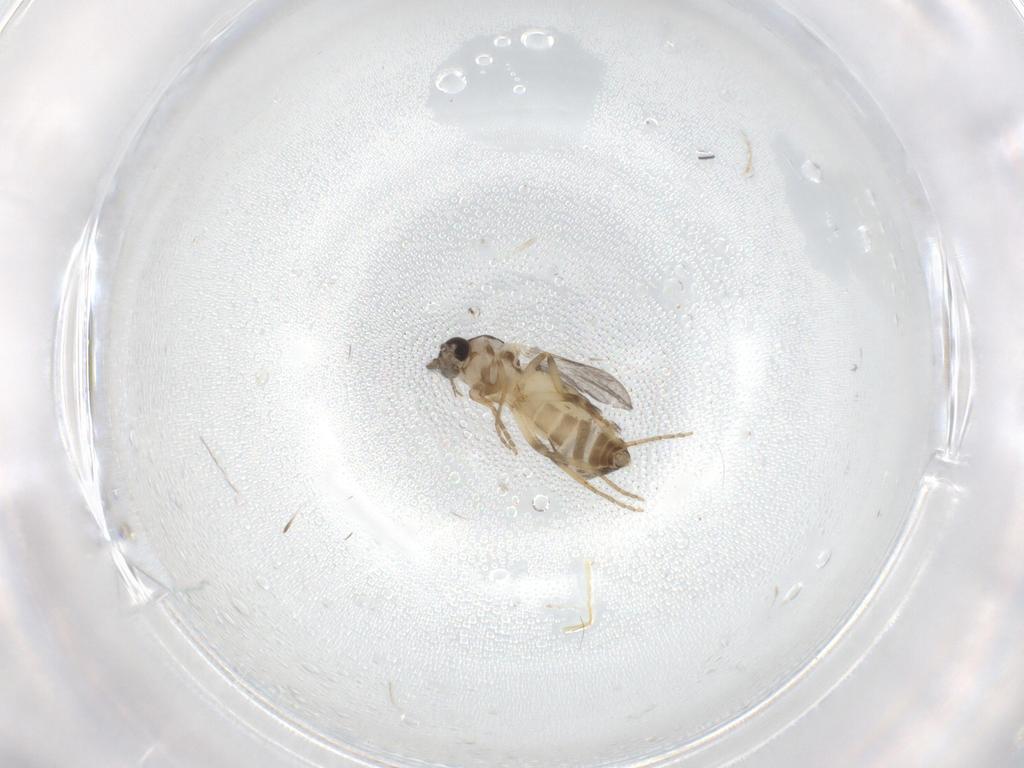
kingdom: Animalia
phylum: Arthropoda
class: Insecta
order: Diptera
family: Ceratopogonidae
